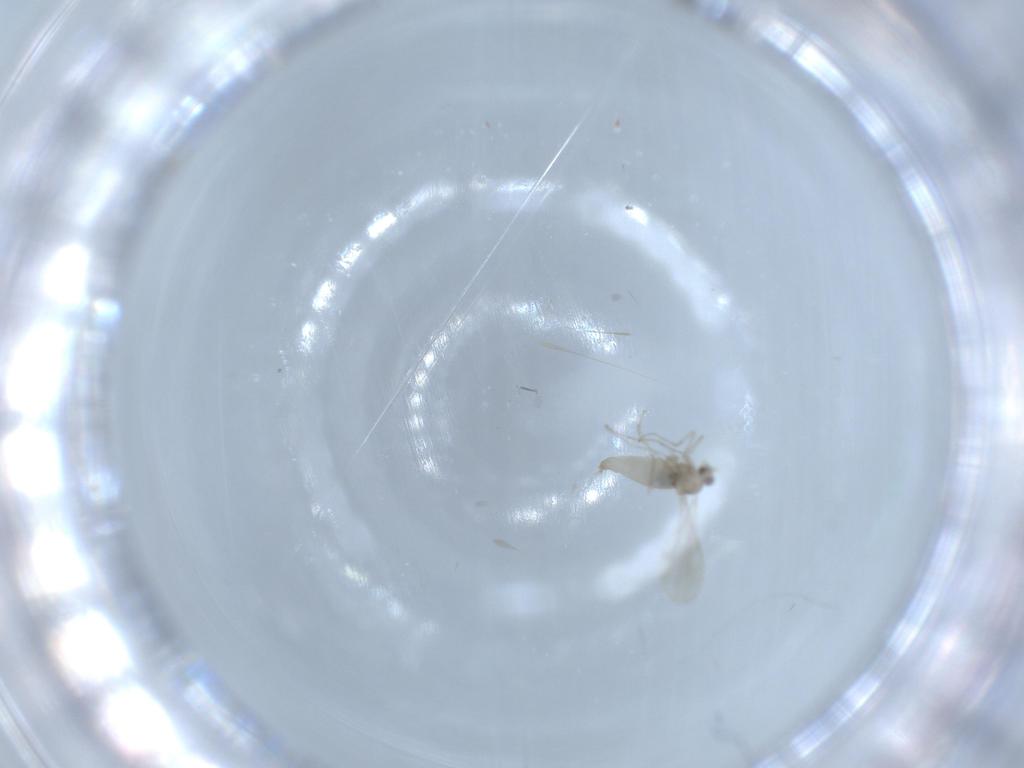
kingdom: Animalia
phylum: Arthropoda
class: Insecta
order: Diptera
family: Cecidomyiidae
